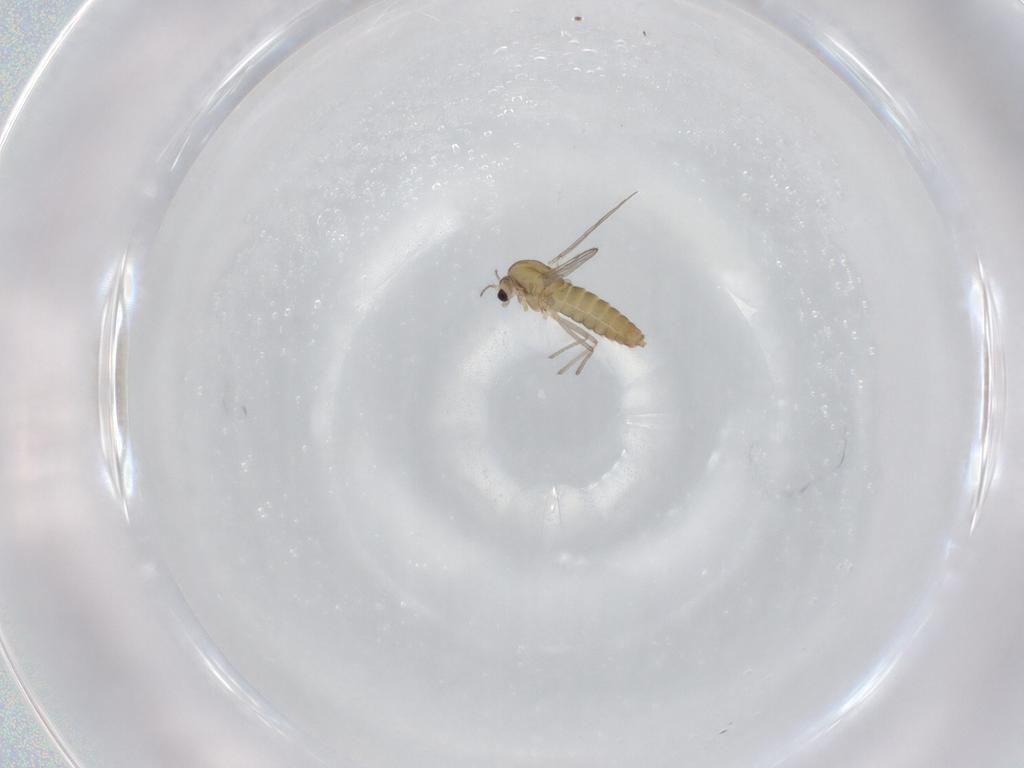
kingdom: Animalia
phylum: Arthropoda
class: Insecta
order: Diptera
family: Chironomidae
